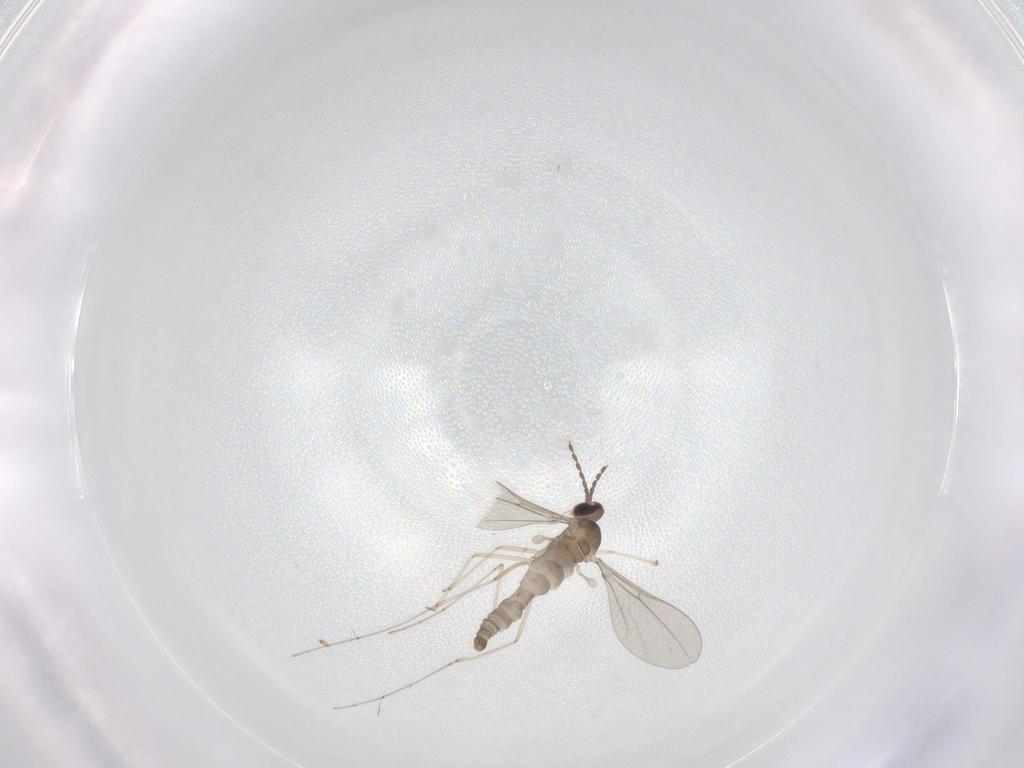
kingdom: Animalia
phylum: Arthropoda
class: Insecta
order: Diptera
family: Cecidomyiidae
